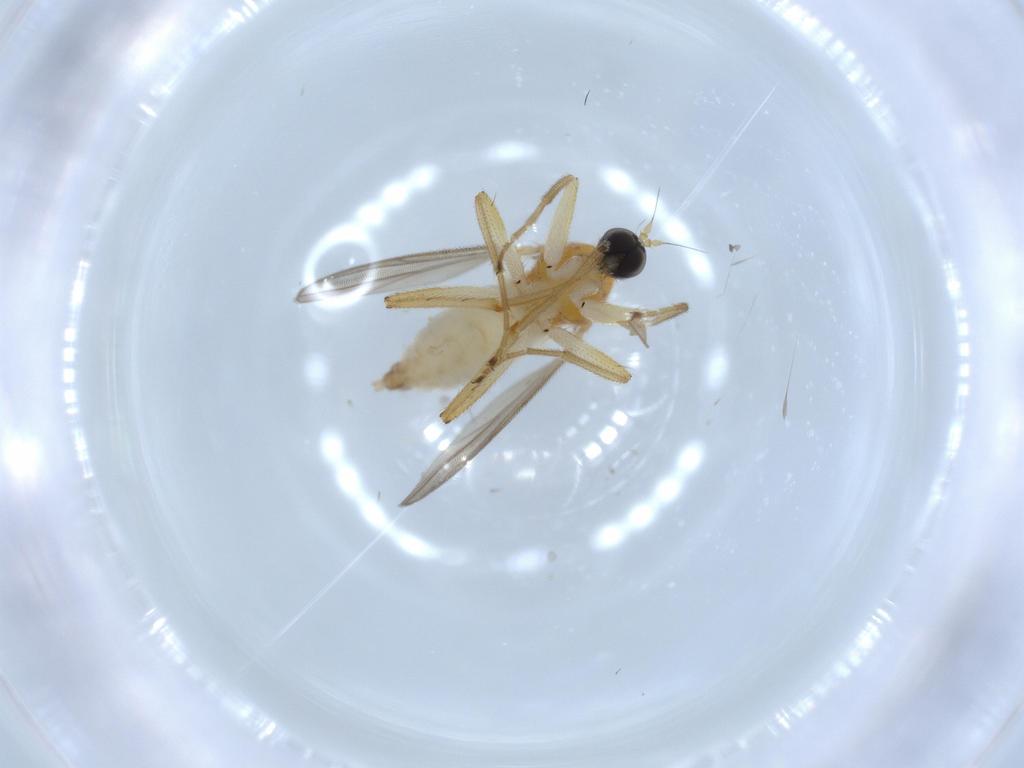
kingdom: Animalia
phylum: Arthropoda
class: Insecta
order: Diptera
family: Hybotidae
